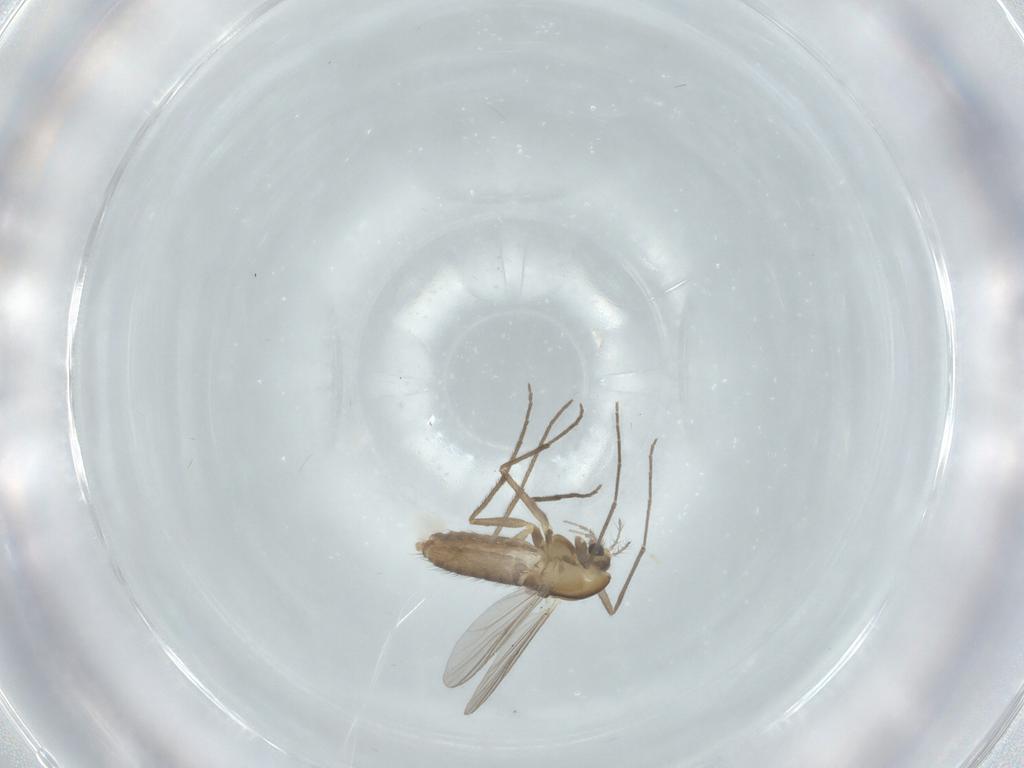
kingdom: Animalia
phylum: Arthropoda
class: Insecta
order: Diptera
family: Chironomidae
